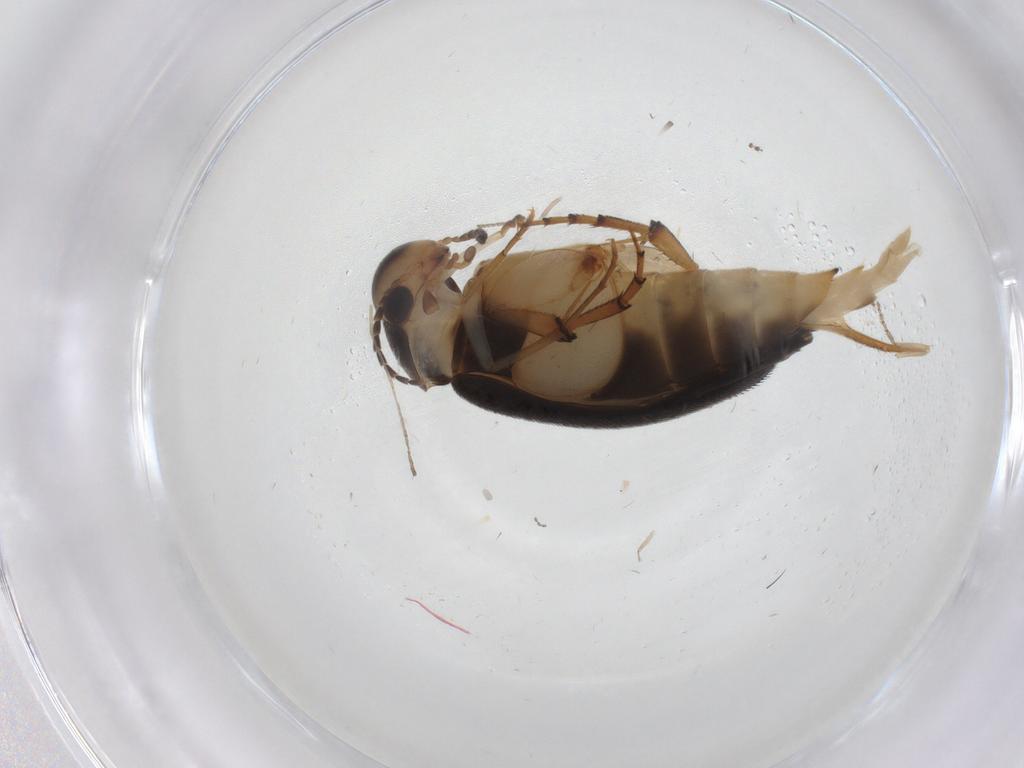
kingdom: Animalia
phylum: Arthropoda
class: Insecta
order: Coleoptera
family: Mordellidae
